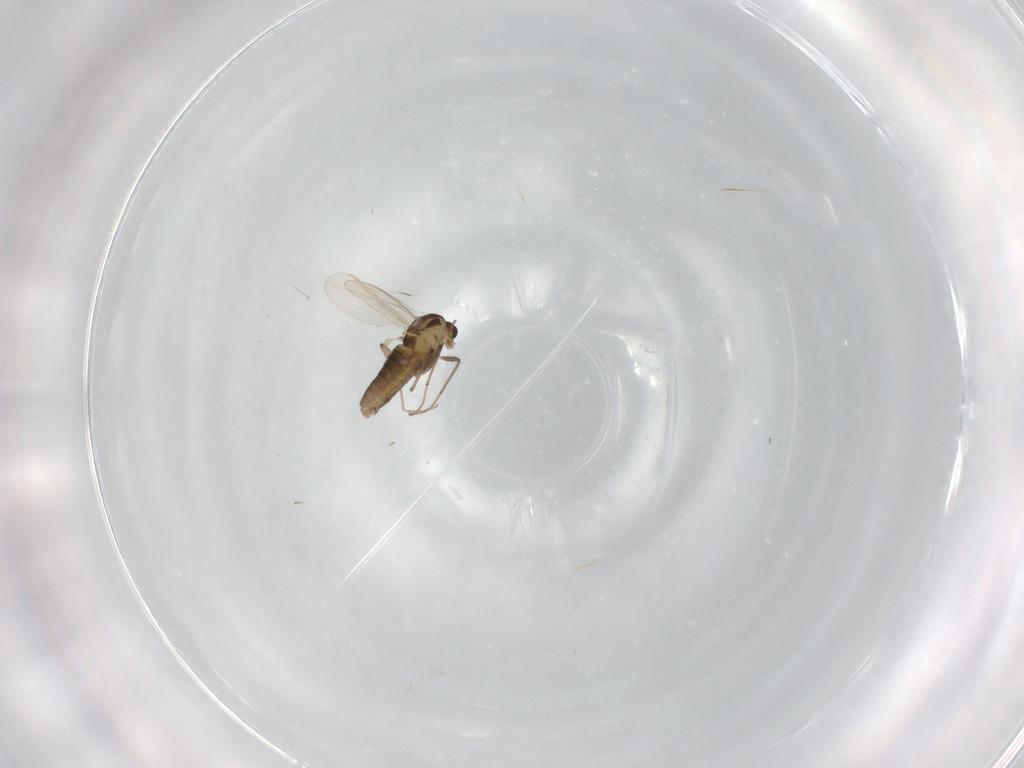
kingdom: Animalia
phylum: Arthropoda
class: Insecta
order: Diptera
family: Chironomidae
